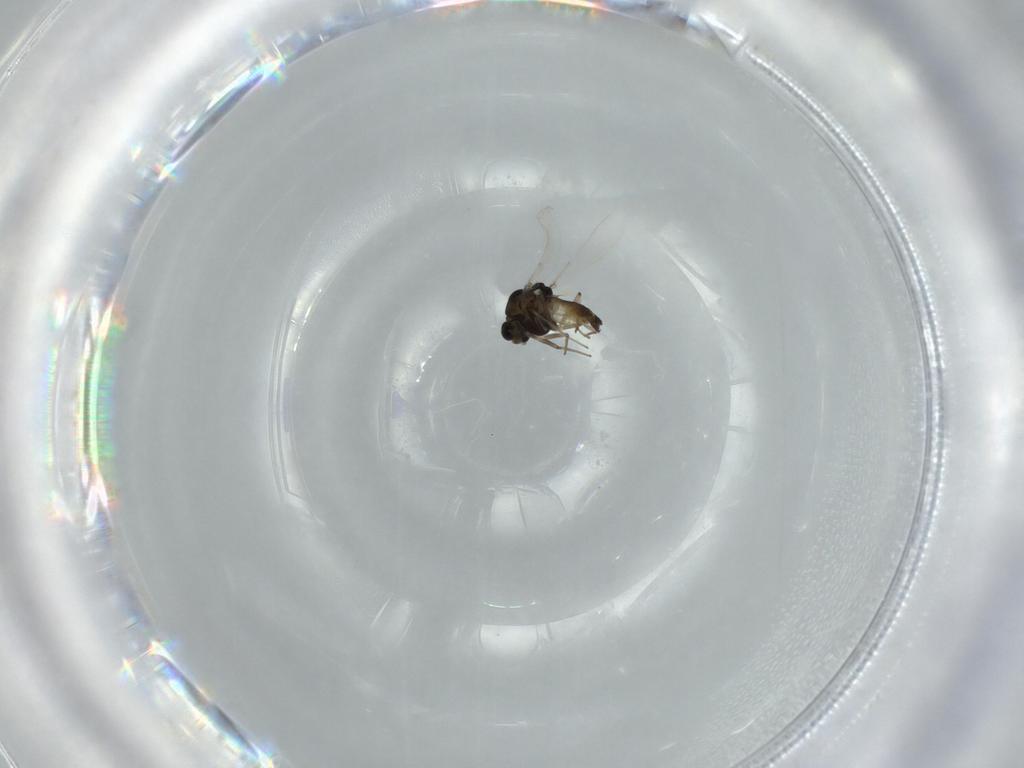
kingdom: Animalia
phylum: Arthropoda
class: Insecta
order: Diptera
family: Chironomidae
